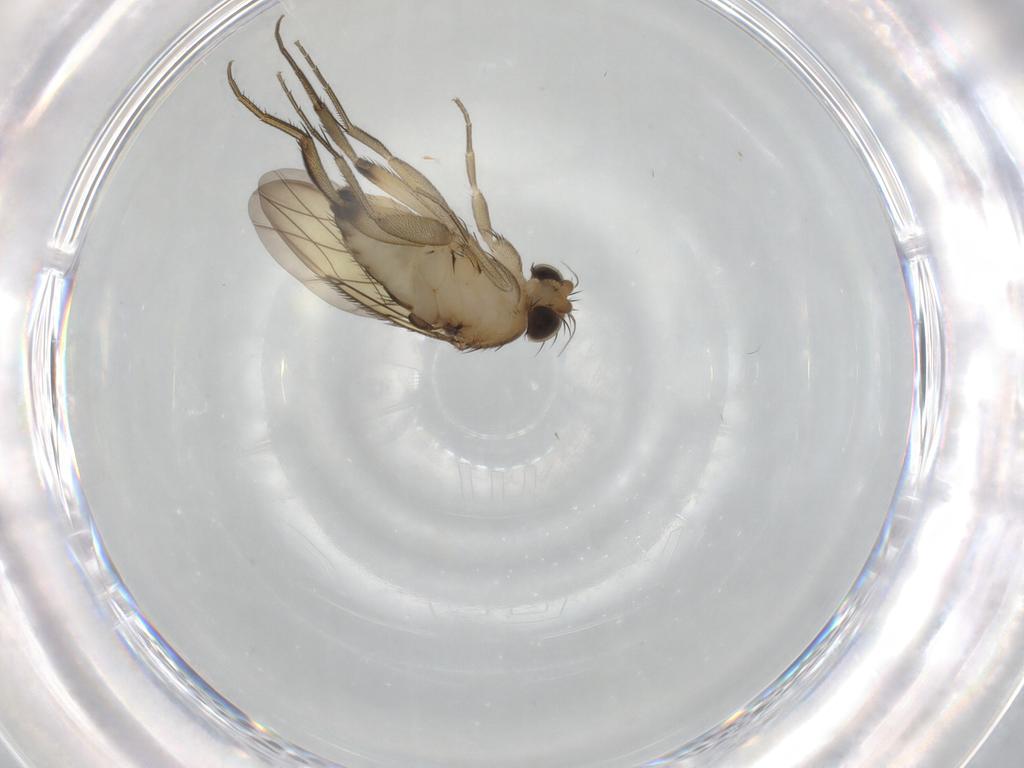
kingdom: Animalia
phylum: Arthropoda
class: Insecta
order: Diptera
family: Phoridae
